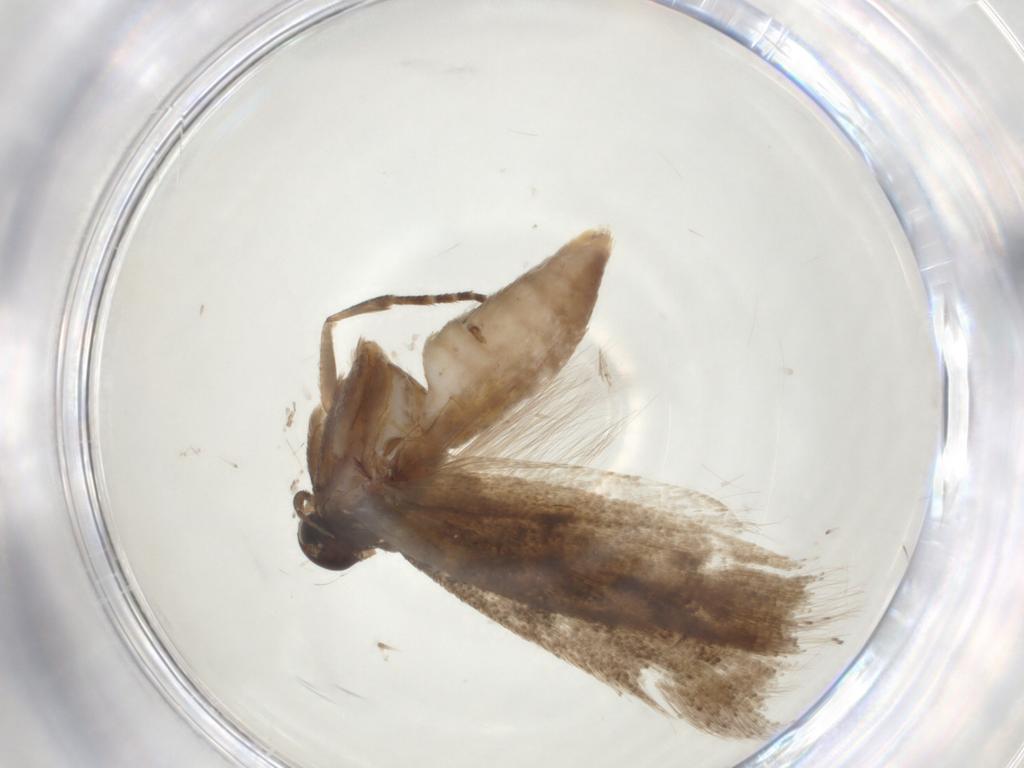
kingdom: Animalia
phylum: Arthropoda
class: Insecta
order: Lepidoptera
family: Gelechiidae
